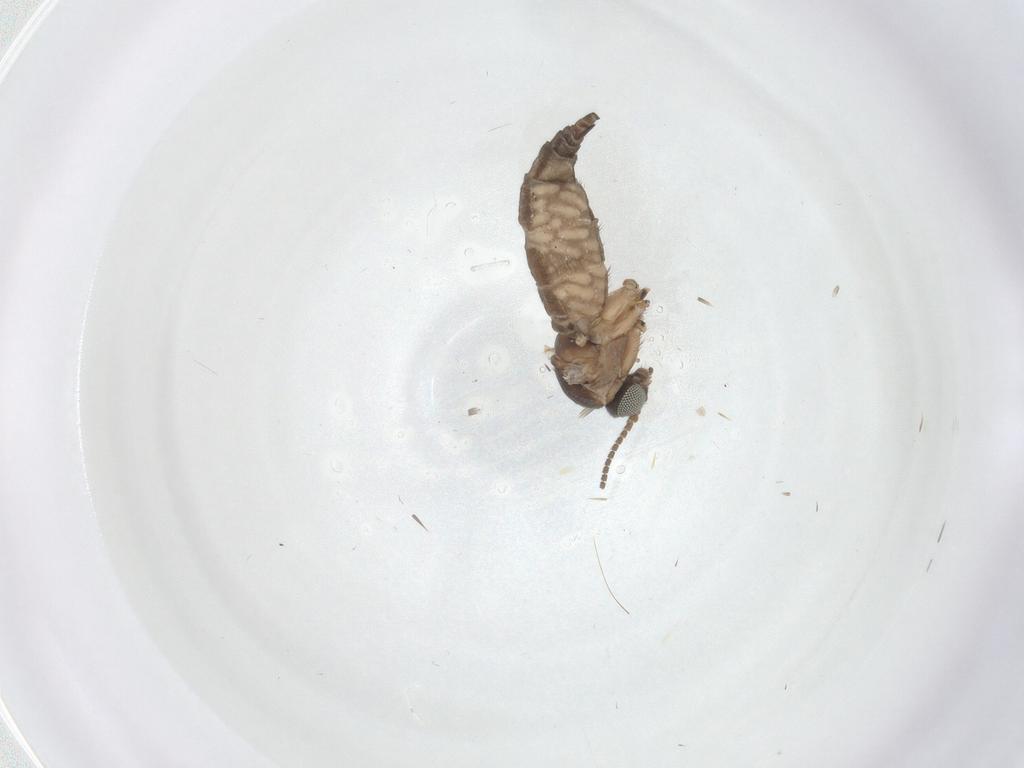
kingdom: Animalia
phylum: Arthropoda
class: Insecta
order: Diptera
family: Sciaridae
